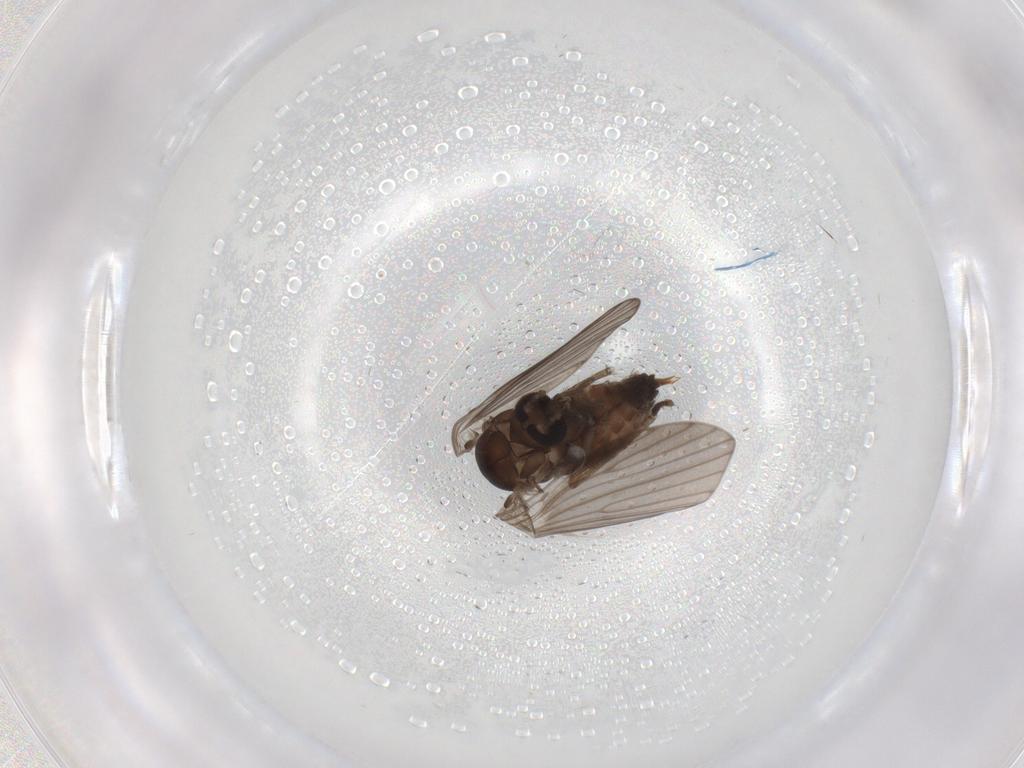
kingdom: Animalia
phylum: Arthropoda
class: Insecta
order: Diptera
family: Psychodidae
